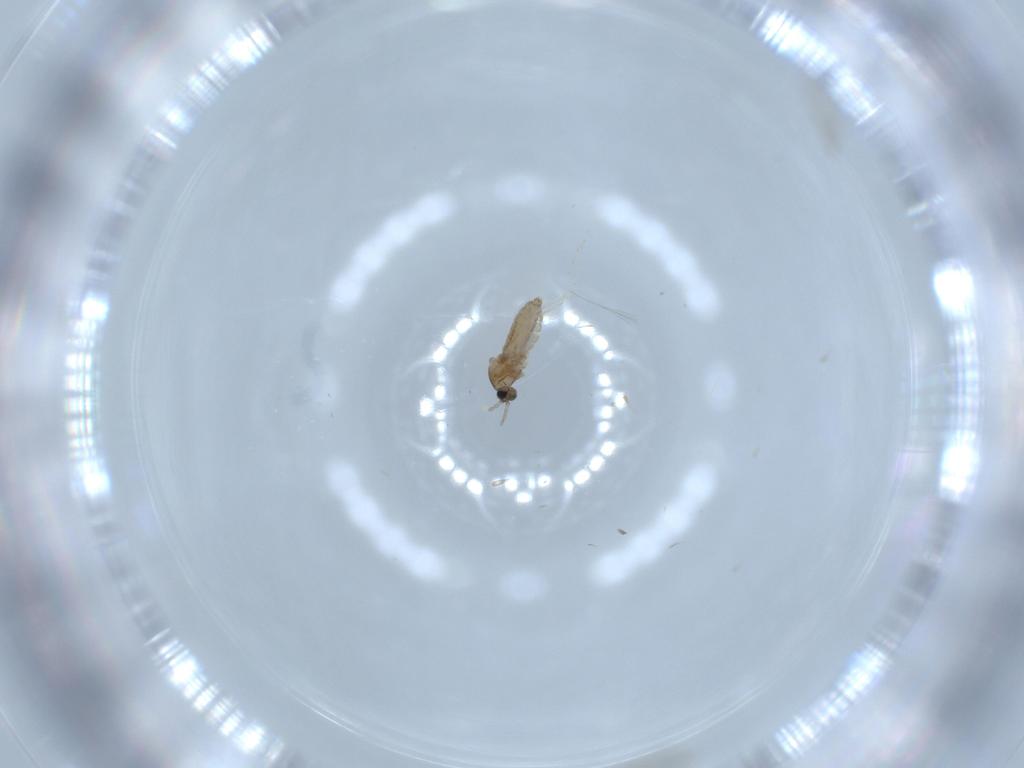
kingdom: Animalia
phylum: Arthropoda
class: Insecta
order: Diptera
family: Cecidomyiidae
